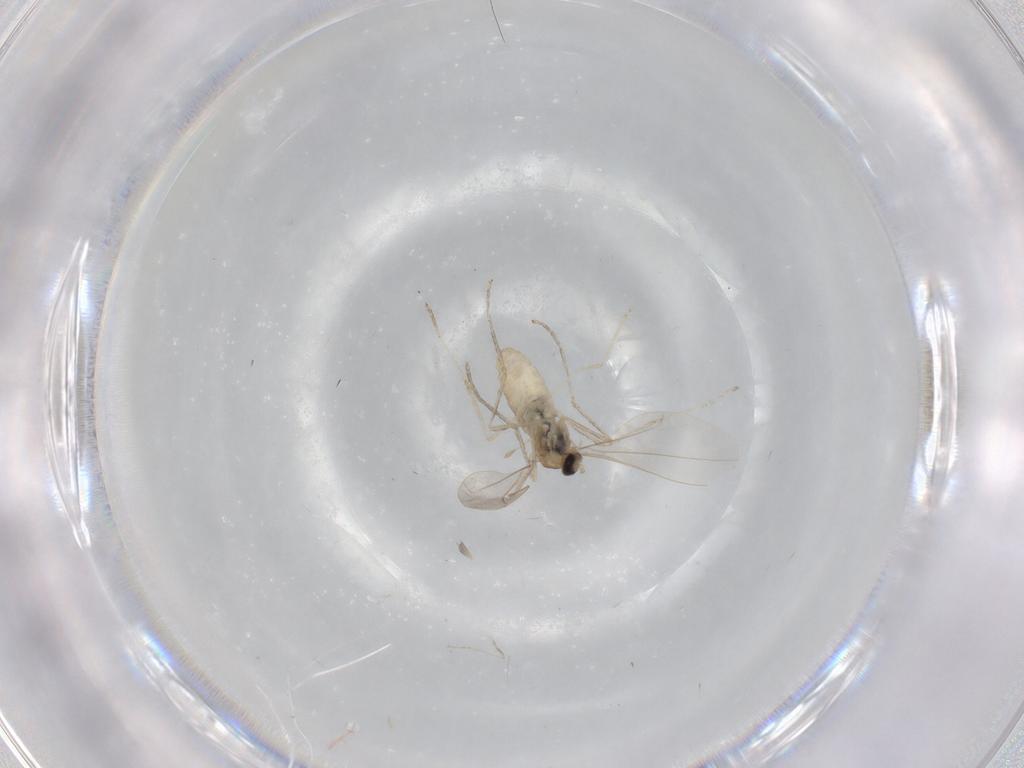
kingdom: Animalia
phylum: Arthropoda
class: Insecta
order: Diptera
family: Cecidomyiidae
